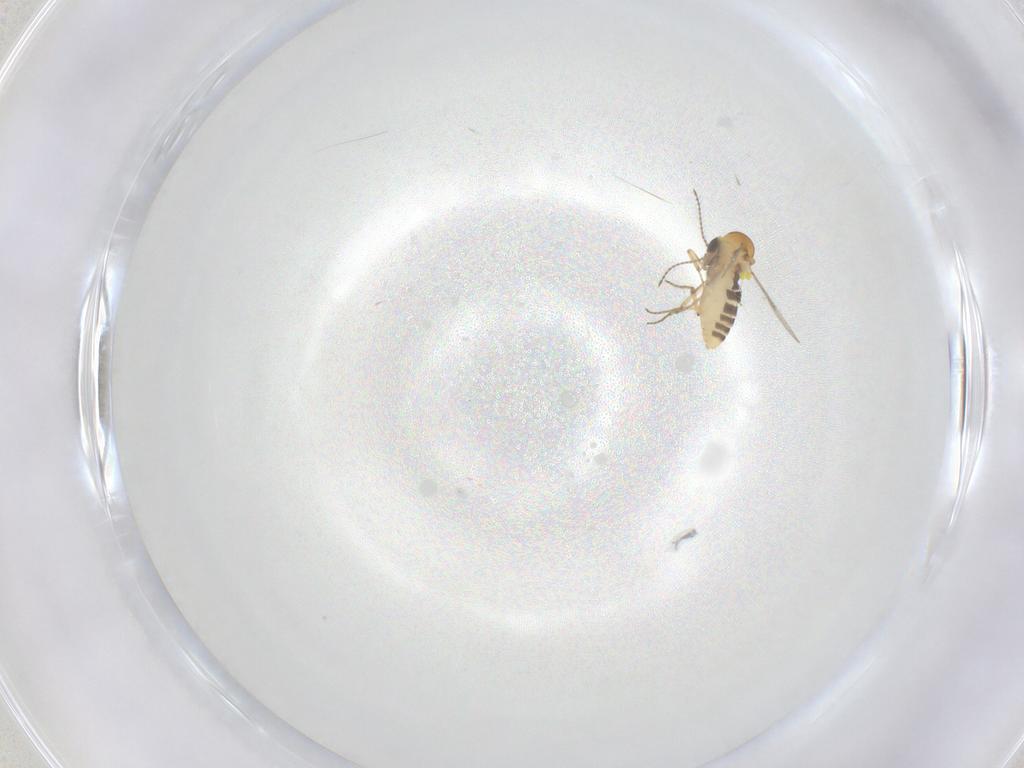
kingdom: Animalia
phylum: Arthropoda
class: Insecta
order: Diptera
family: Ceratopogonidae
